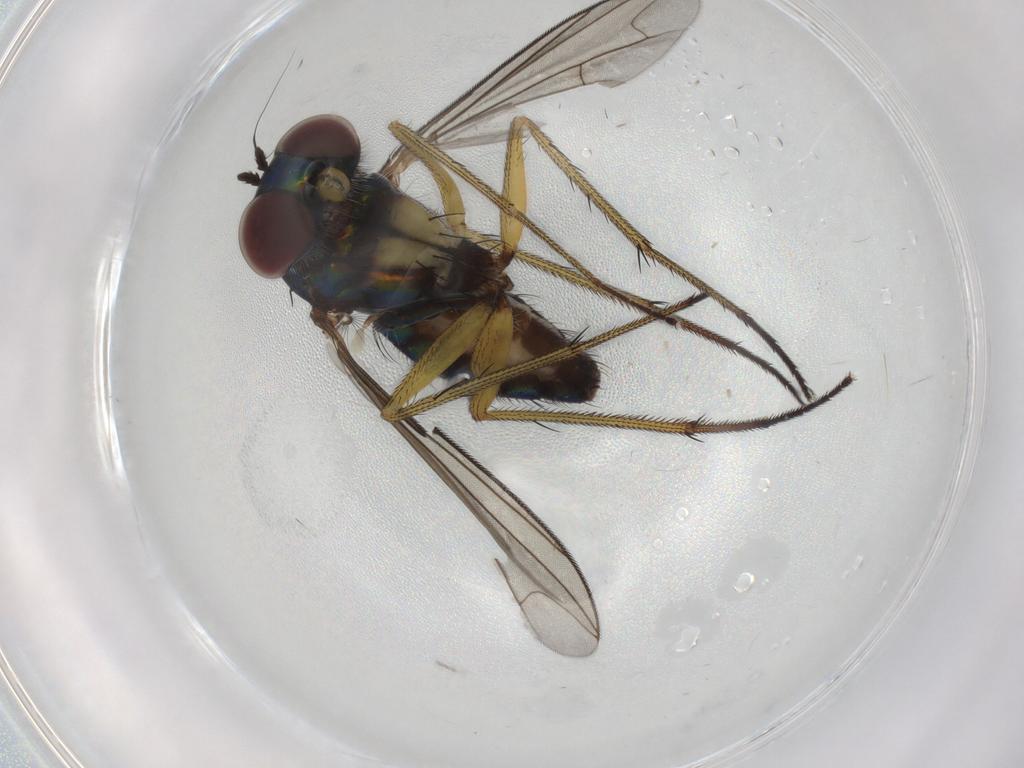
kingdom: Animalia
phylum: Arthropoda
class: Insecta
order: Diptera
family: Dolichopodidae
